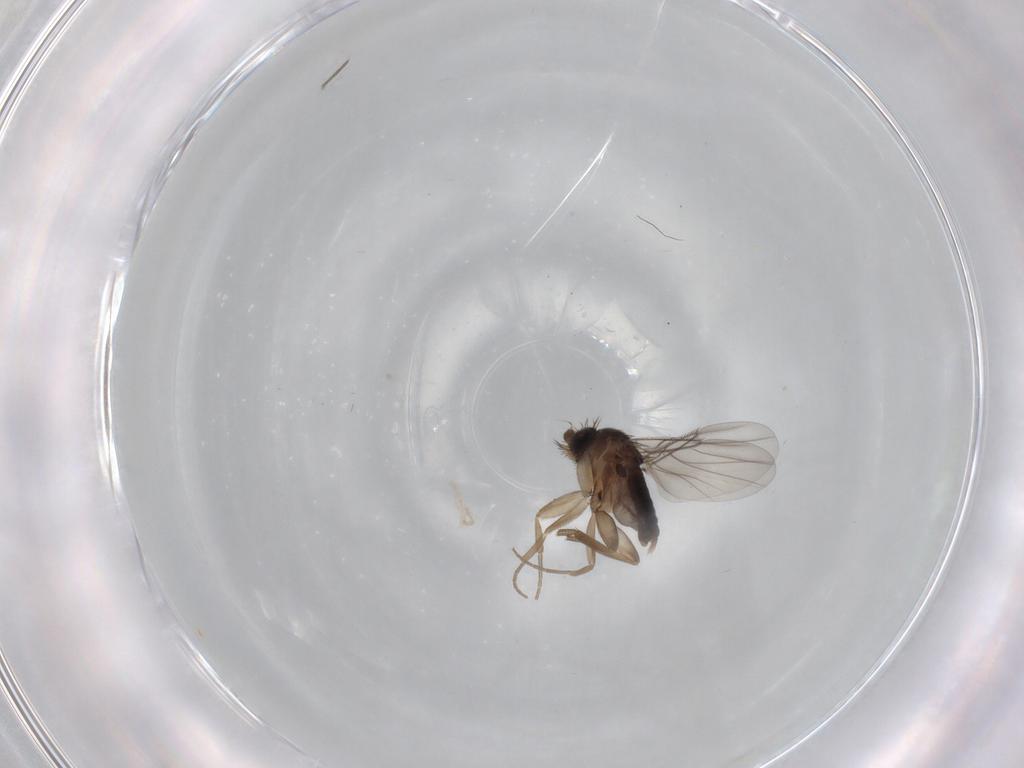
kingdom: Animalia
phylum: Arthropoda
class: Insecta
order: Diptera
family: Phoridae
